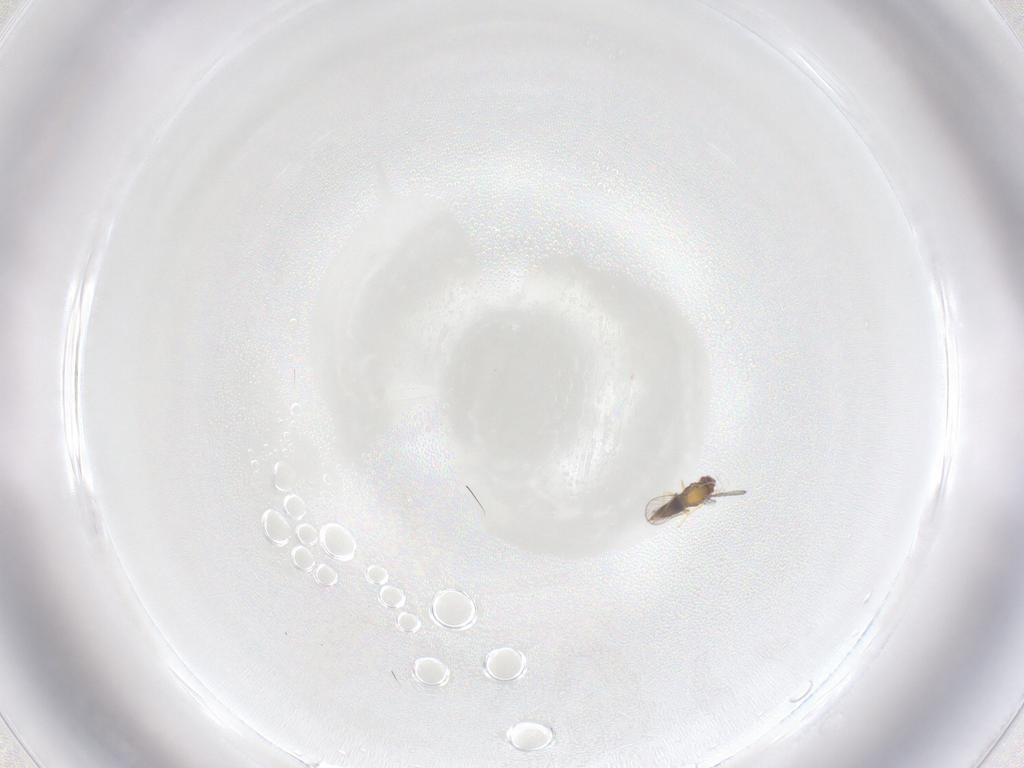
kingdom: Animalia
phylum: Arthropoda
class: Insecta
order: Hymenoptera
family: Trichogrammatidae
